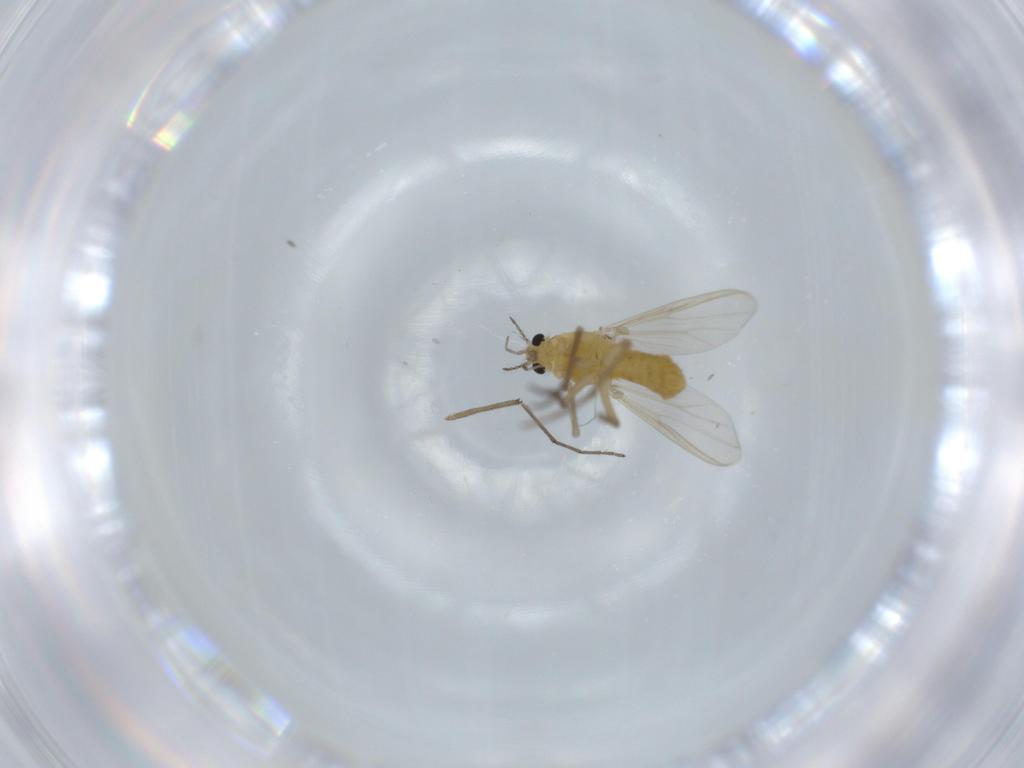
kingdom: Animalia
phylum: Arthropoda
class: Insecta
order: Diptera
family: Chironomidae
